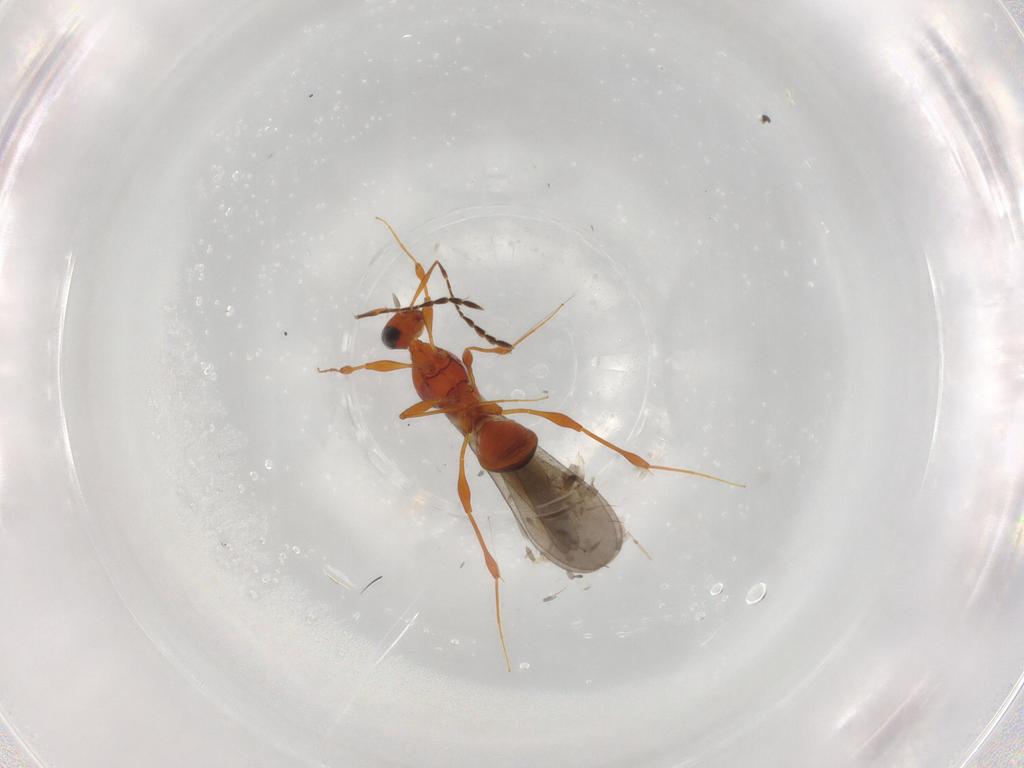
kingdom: Animalia
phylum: Arthropoda
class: Insecta
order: Hymenoptera
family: Platygastridae
